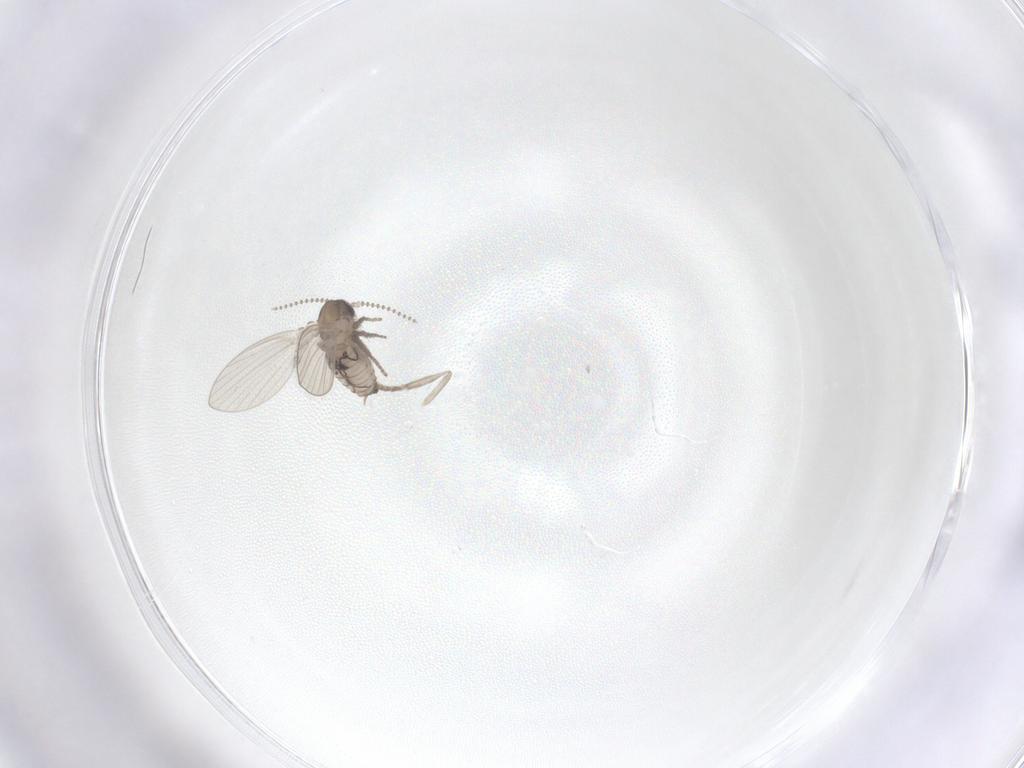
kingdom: Animalia
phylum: Arthropoda
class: Insecta
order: Diptera
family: Psychodidae
